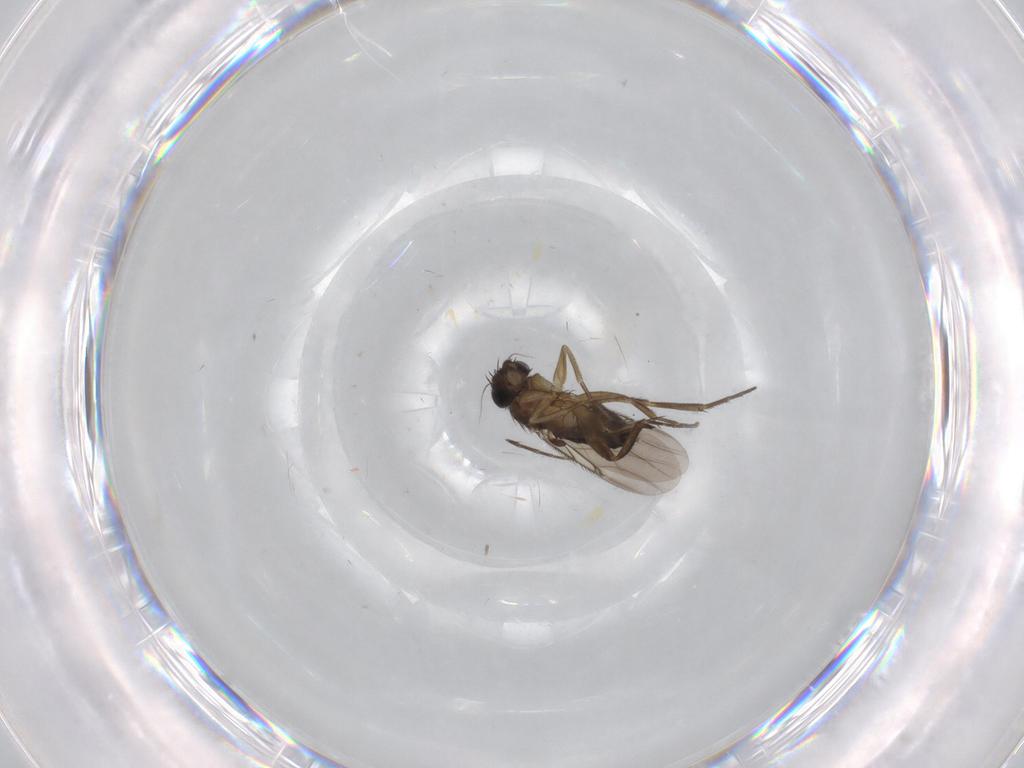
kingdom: Animalia
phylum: Arthropoda
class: Insecta
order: Diptera
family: Phoridae
